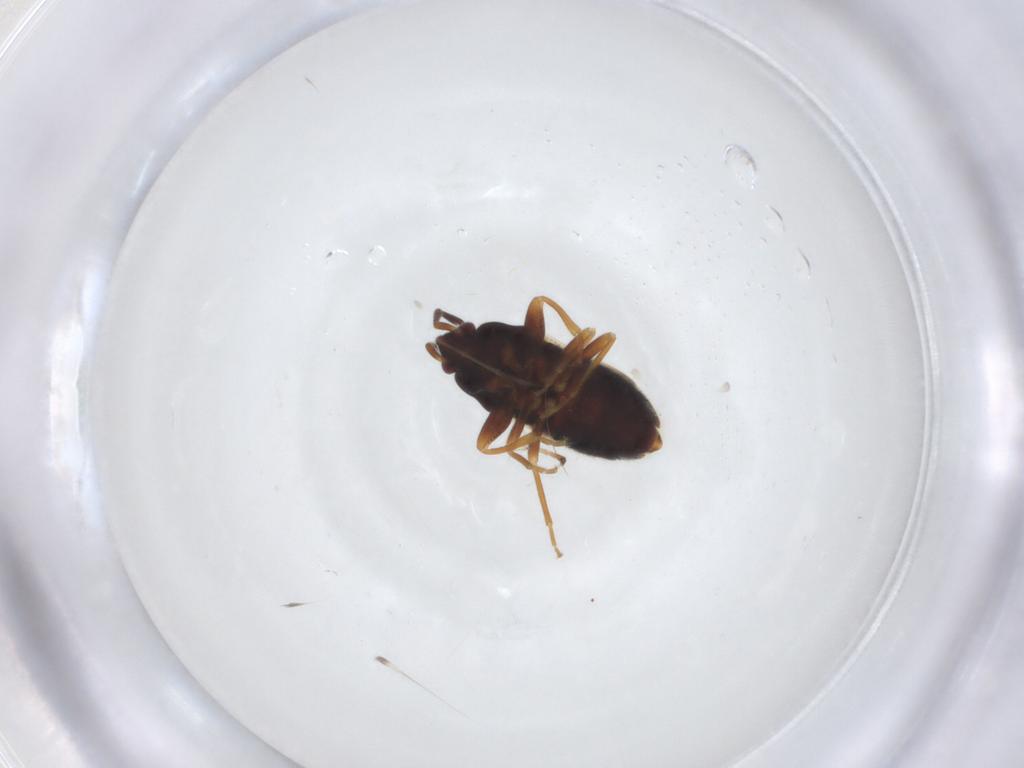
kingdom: Animalia
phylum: Arthropoda
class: Insecta
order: Hemiptera
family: Rhyparochromidae
